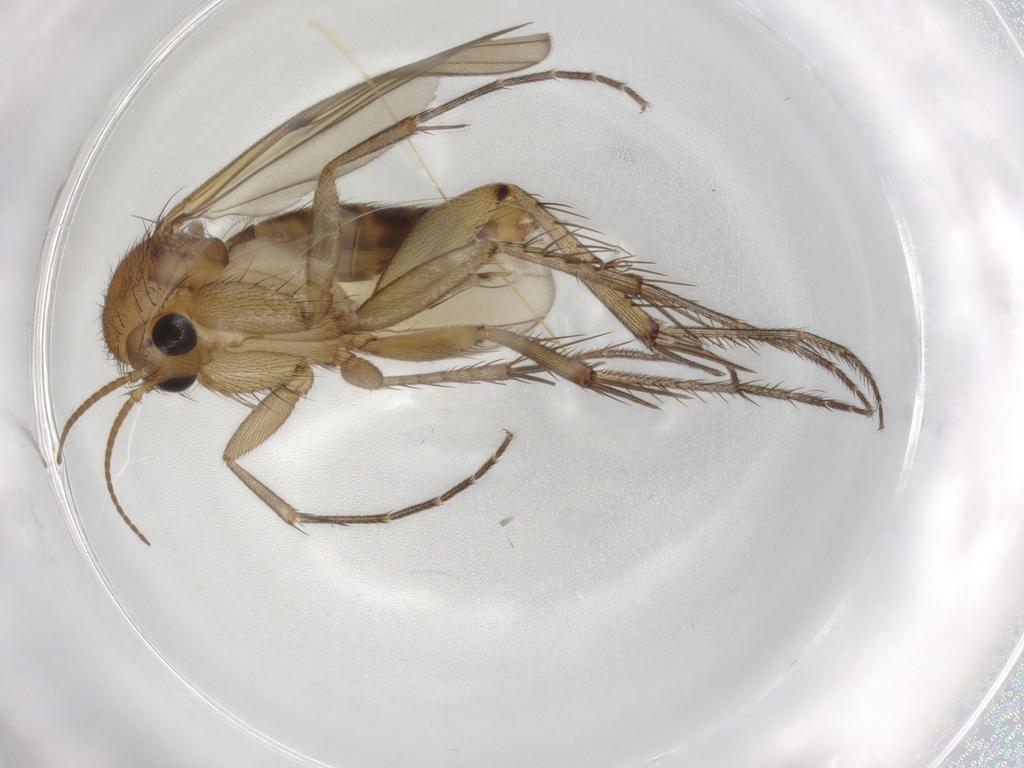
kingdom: Animalia
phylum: Arthropoda
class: Insecta
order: Diptera
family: Mycetophilidae
